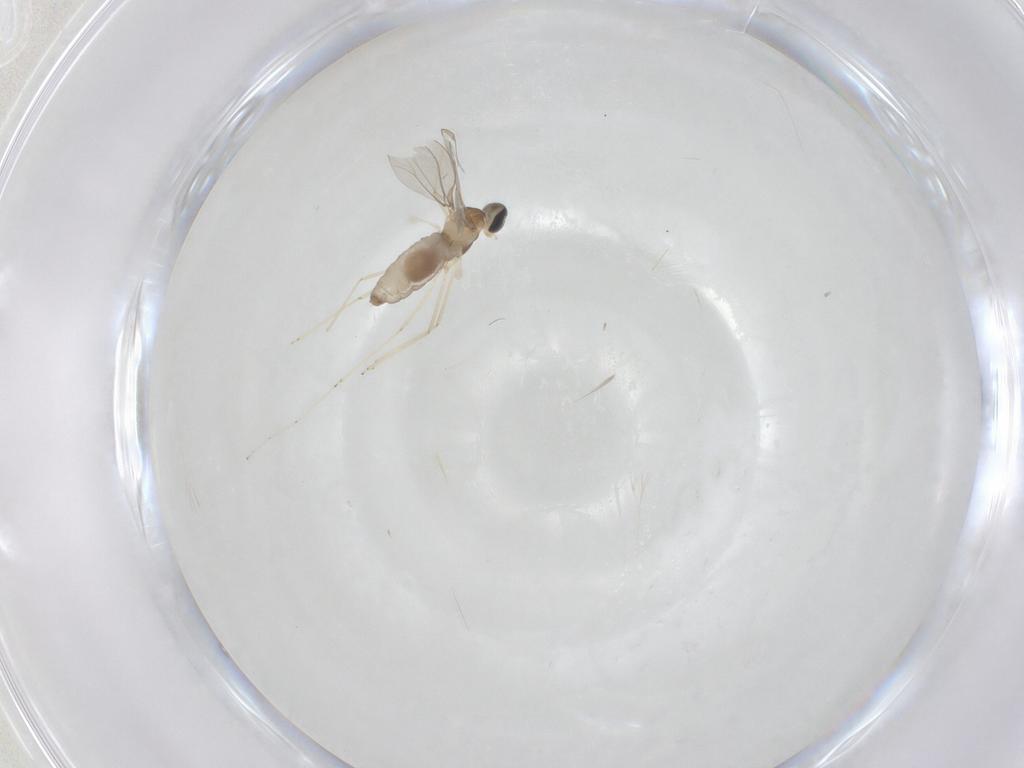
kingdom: Animalia
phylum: Arthropoda
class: Insecta
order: Diptera
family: Cecidomyiidae
